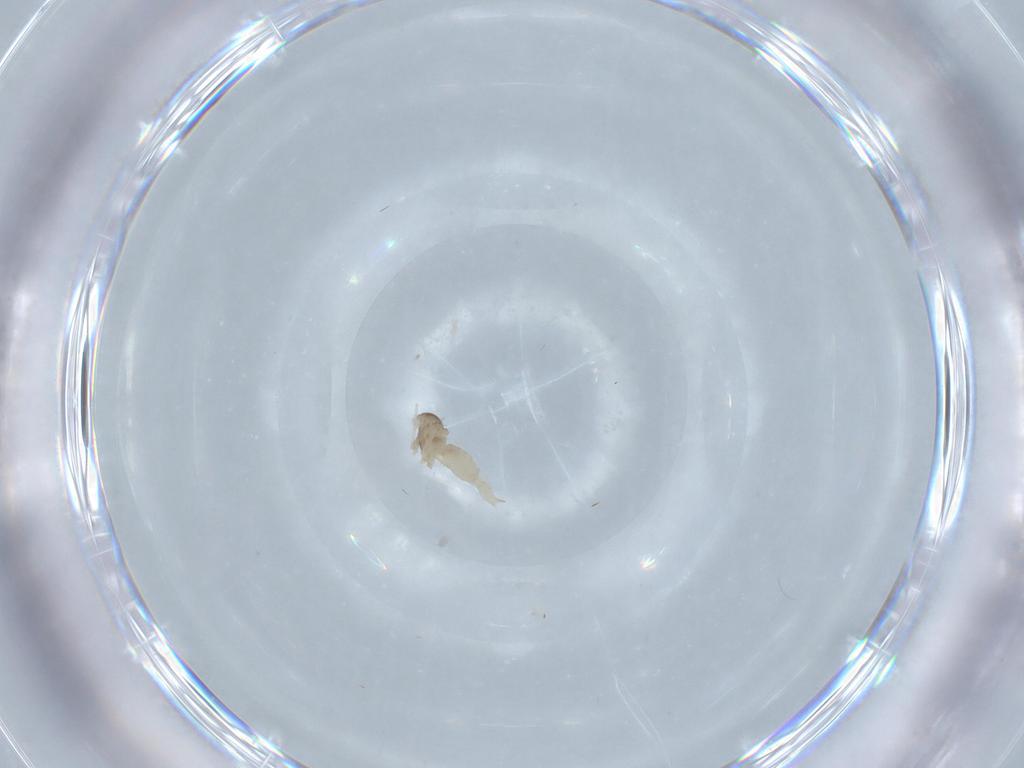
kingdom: Animalia
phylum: Arthropoda
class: Insecta
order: Diptera
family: Cecidomyiidae
